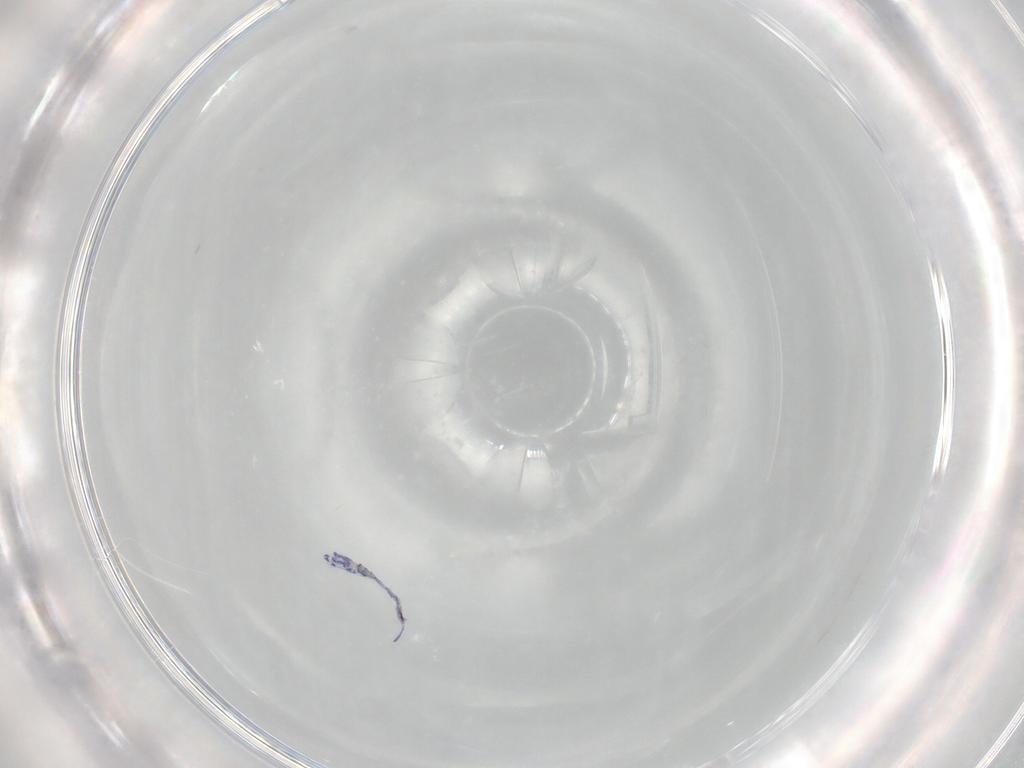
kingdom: Animalia
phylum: Arthropoda
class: Collembola
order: Entomobryomorpha
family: Entomobryidae
